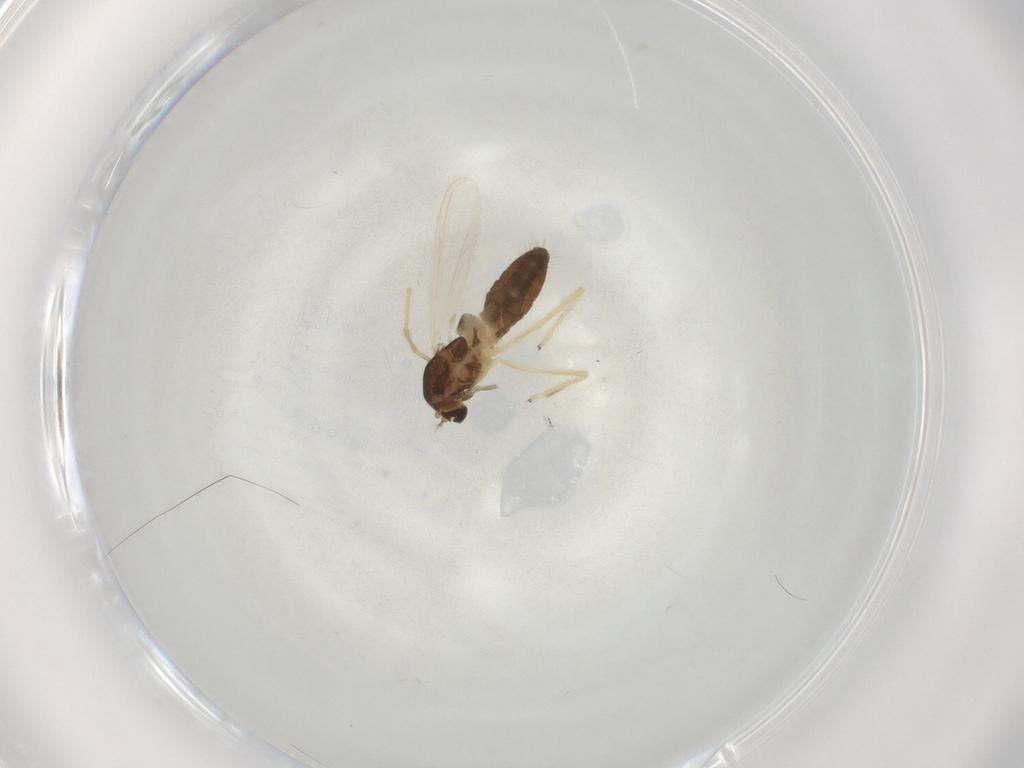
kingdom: Animalia
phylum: Arthropoda
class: Insecta
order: Diptera
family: Chironomidae
